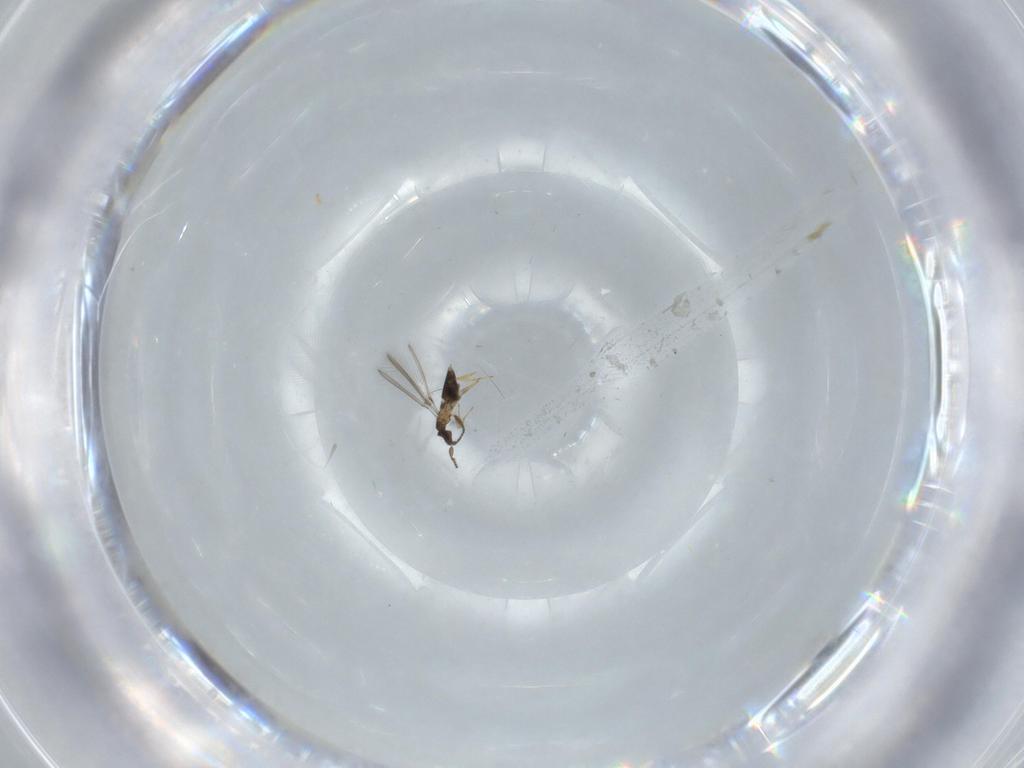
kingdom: Animalia
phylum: Arthropoda
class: Insecta
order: Hymenoptera
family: Mymaridae
